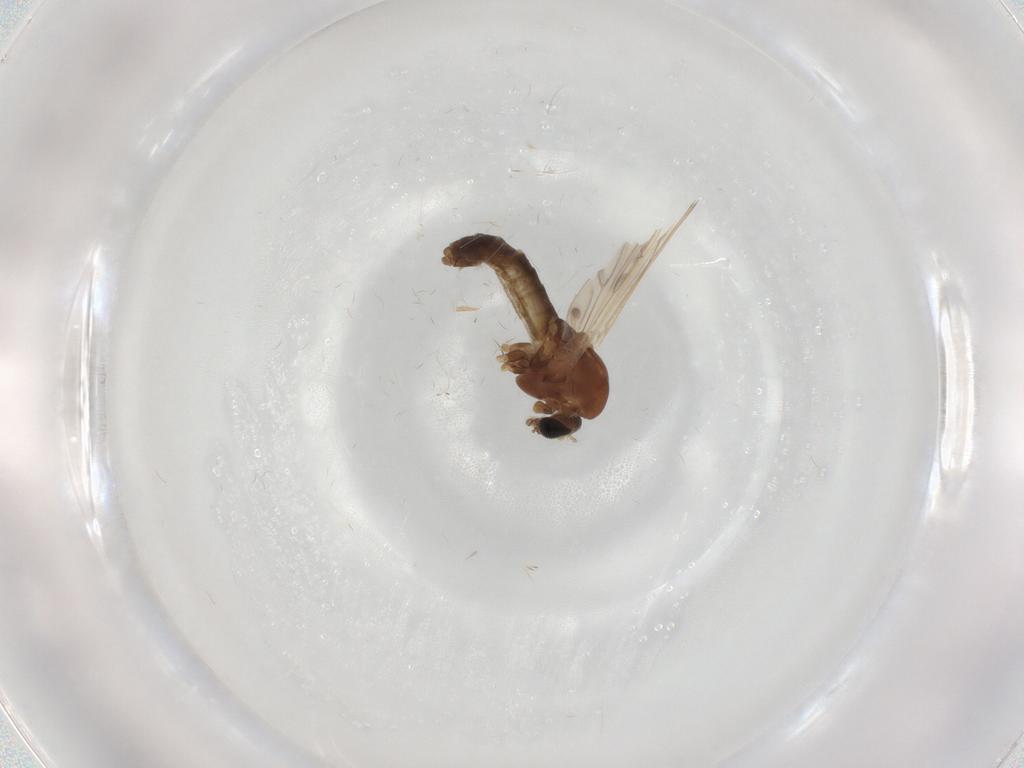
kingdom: Animalia
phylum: Arthropoda
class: Insecta
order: Diptera
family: Chironomidae
